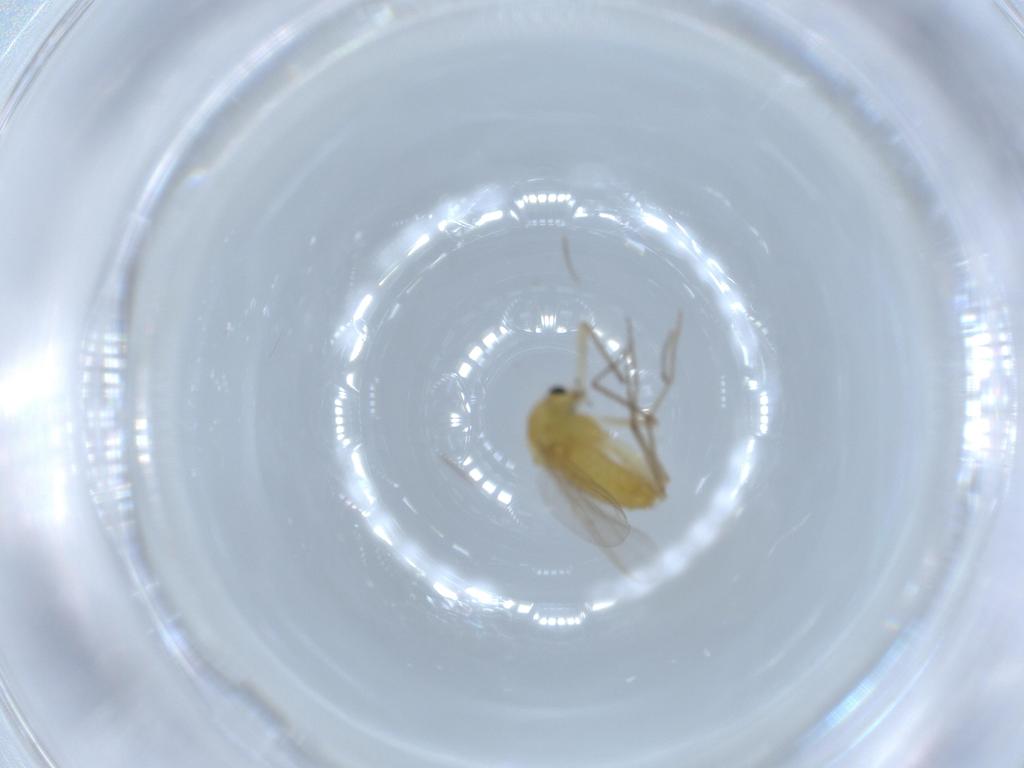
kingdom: Animalia
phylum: Arthropoda
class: Insecta
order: Diptera
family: Chironomidae
